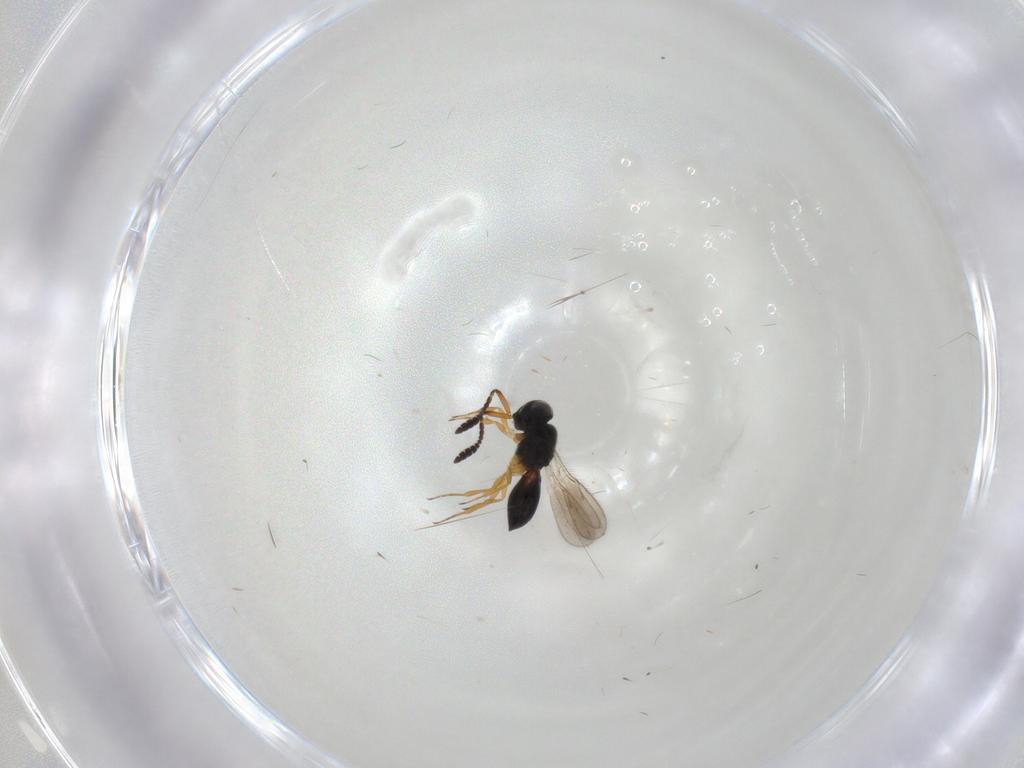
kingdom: Animalia
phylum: Arthropoda
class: Insecta
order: Hymenoptera
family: Scelionidae
